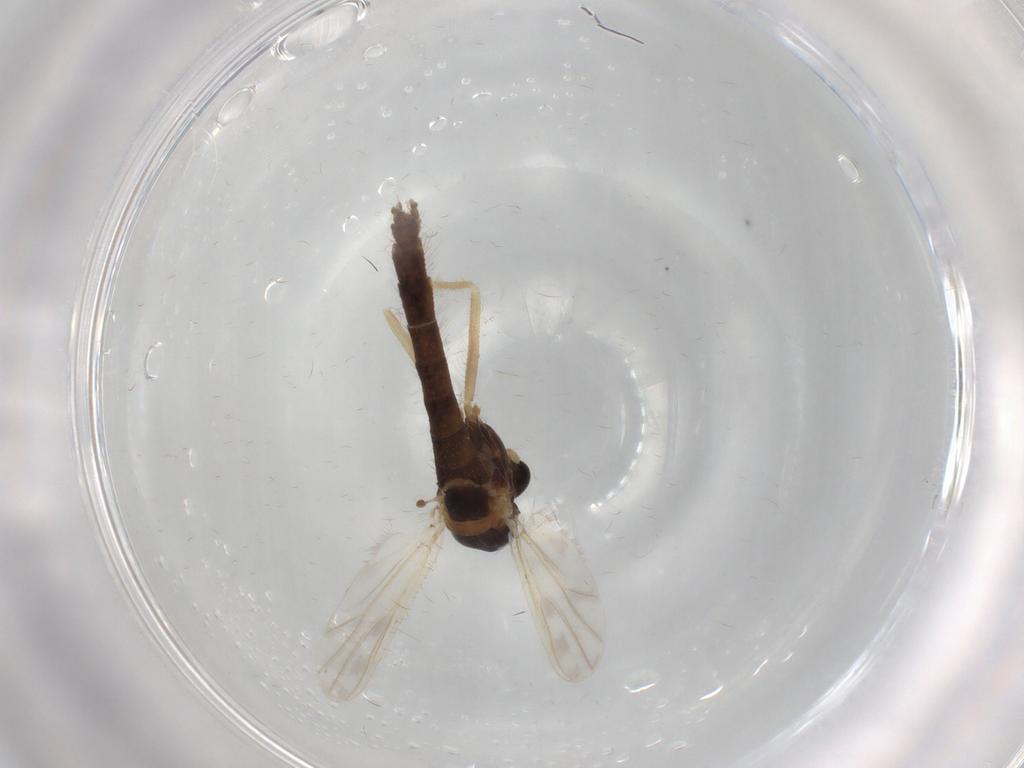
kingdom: Animalia
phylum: Arthropoda
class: Insecta
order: Diptera
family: Chironomidae
